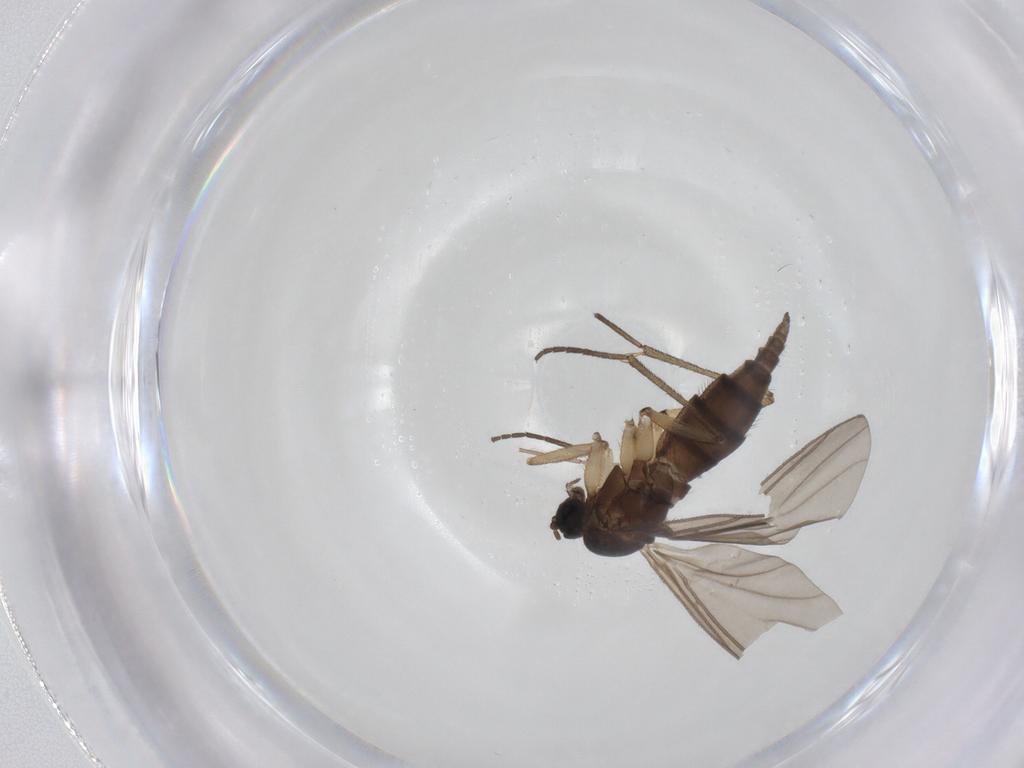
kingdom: Animalia
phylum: Arthropoda
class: Insecta
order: Diptera
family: Sciaridae
